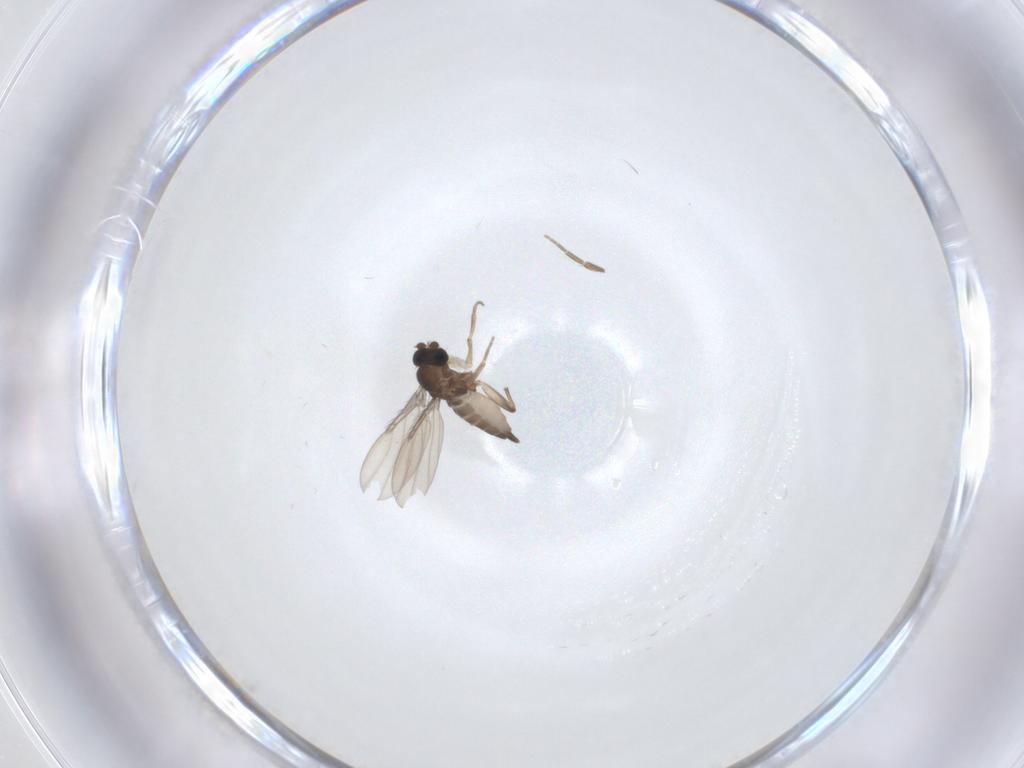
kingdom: Animalia
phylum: Arthropoda
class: Insecta
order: Diptera
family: Phoridae
